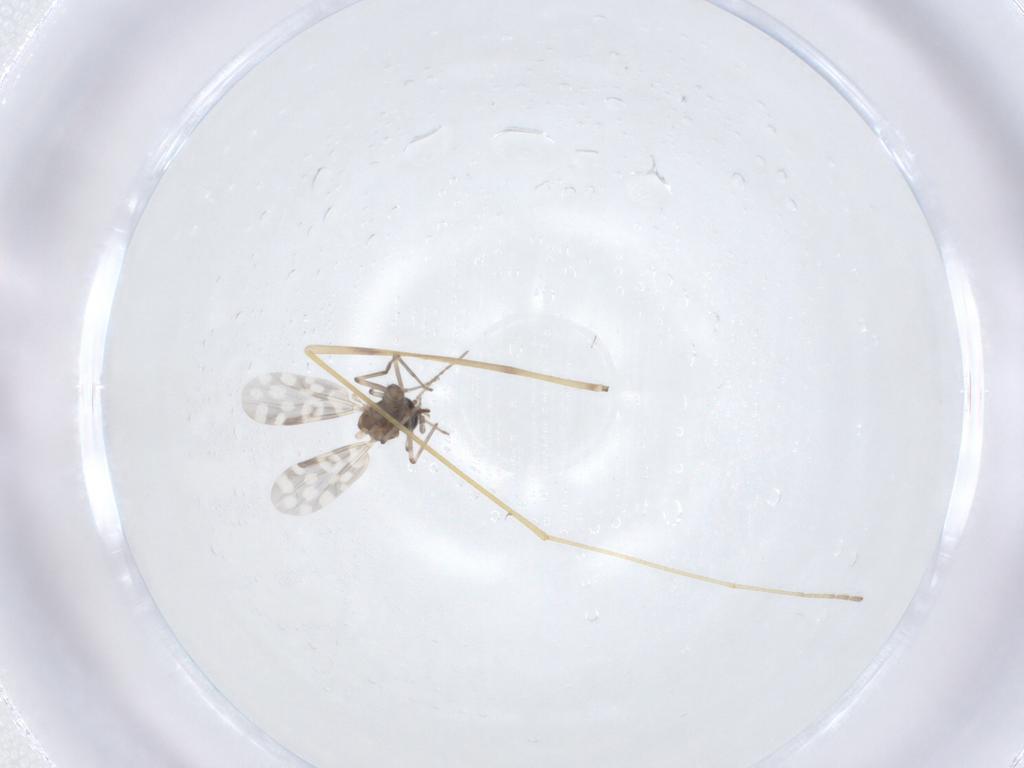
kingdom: Animalia
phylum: Arthropoda
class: Insecta
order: Diptera
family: Limoniidae
